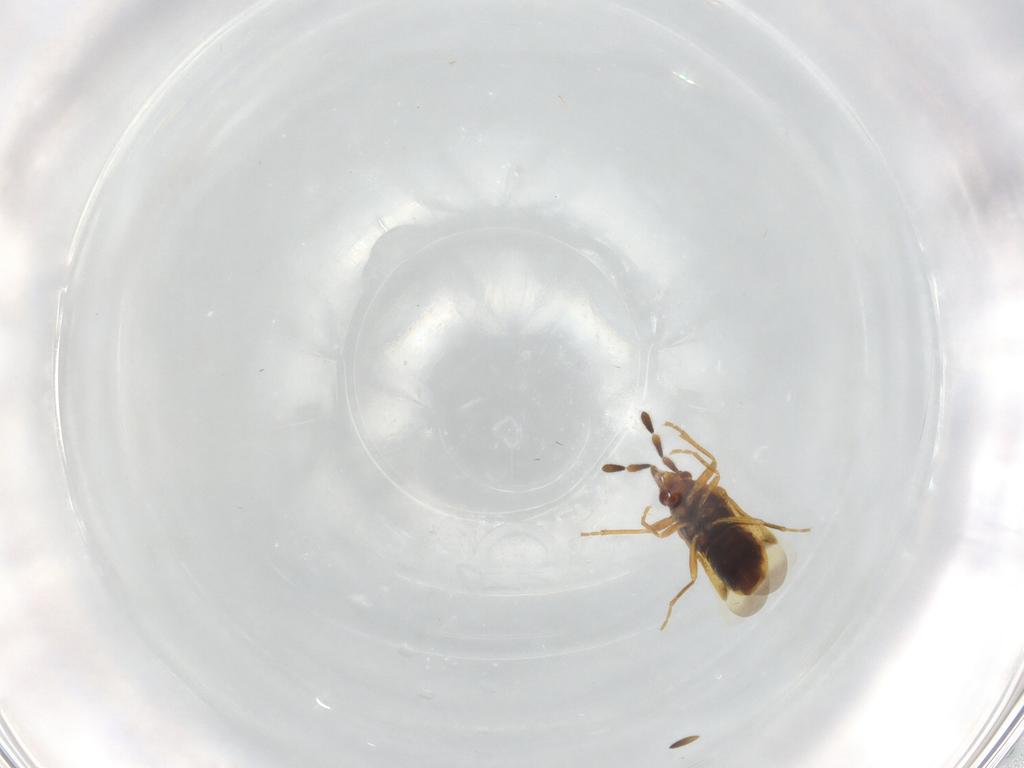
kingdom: Animalia
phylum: Arthropoda
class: Insecta
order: Hemiptera
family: Rhyparochromidae
